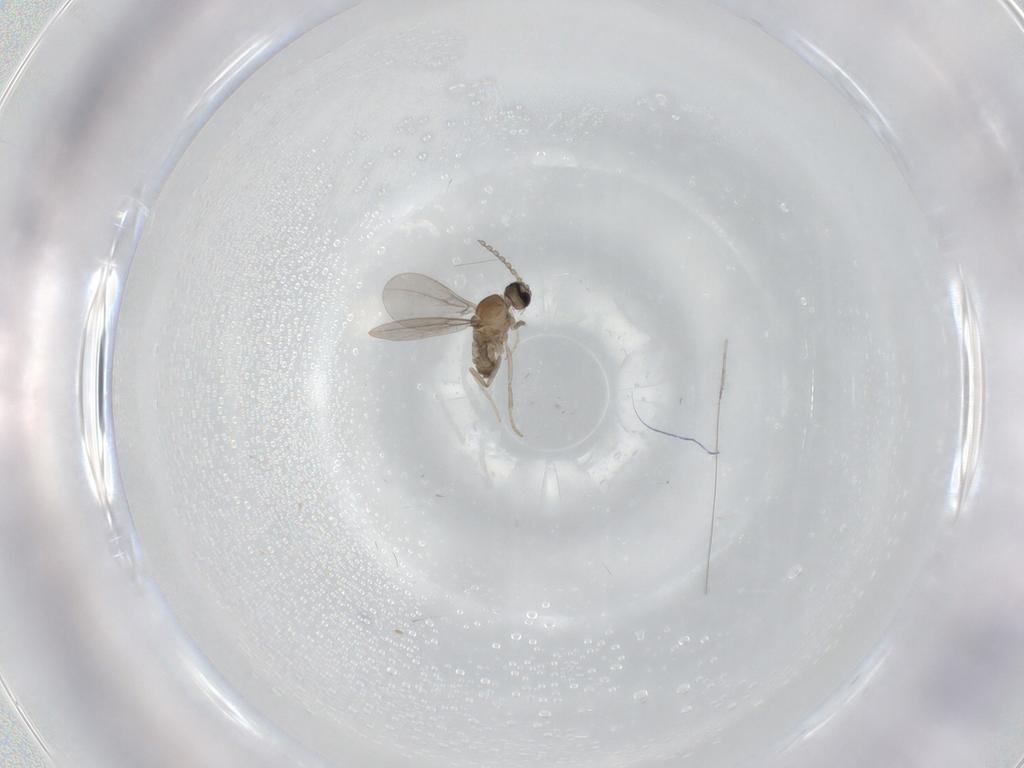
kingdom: Animalia
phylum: Arthropoda
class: Insecta
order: Diptera
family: Cecidomyiidae
